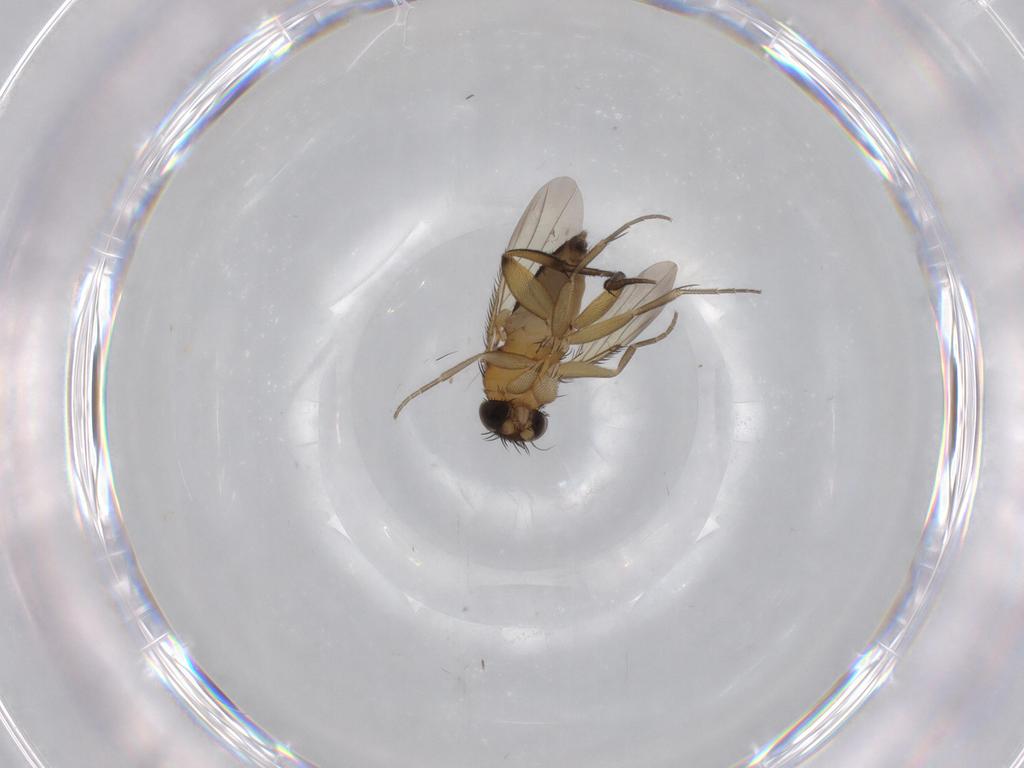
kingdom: Animalia
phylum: Arthropoda
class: Insecta
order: Diptera
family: Phoridae
